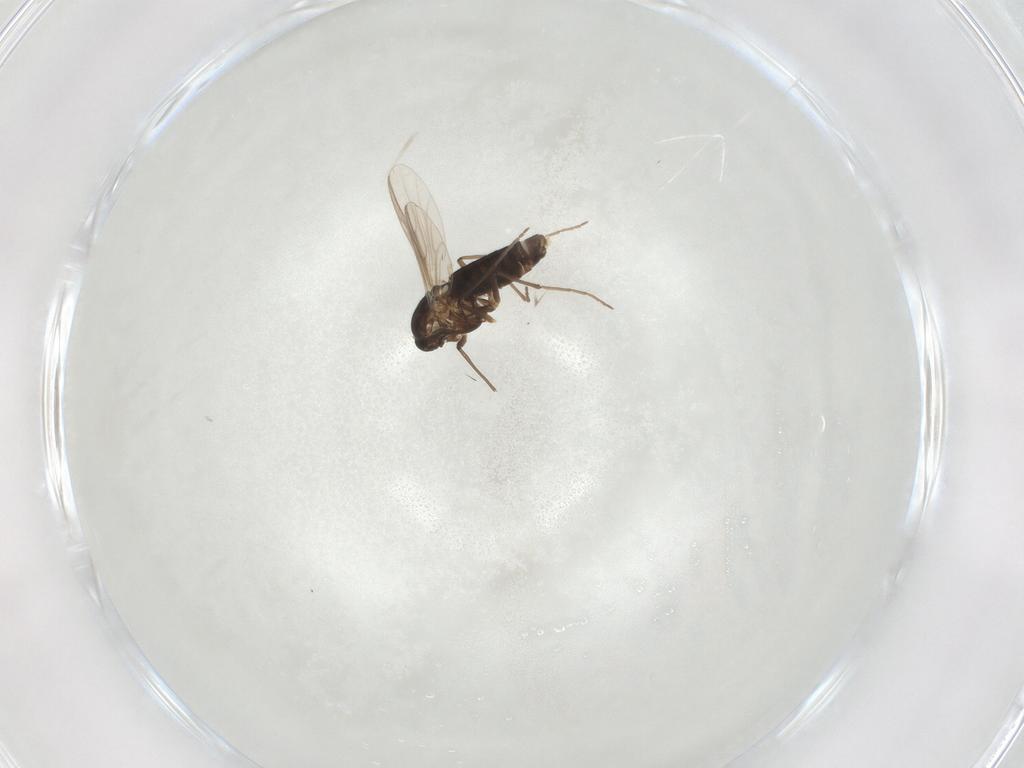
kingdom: Animalia
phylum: Arthropoda
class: Insecta
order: Diptera
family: Chironomidae
